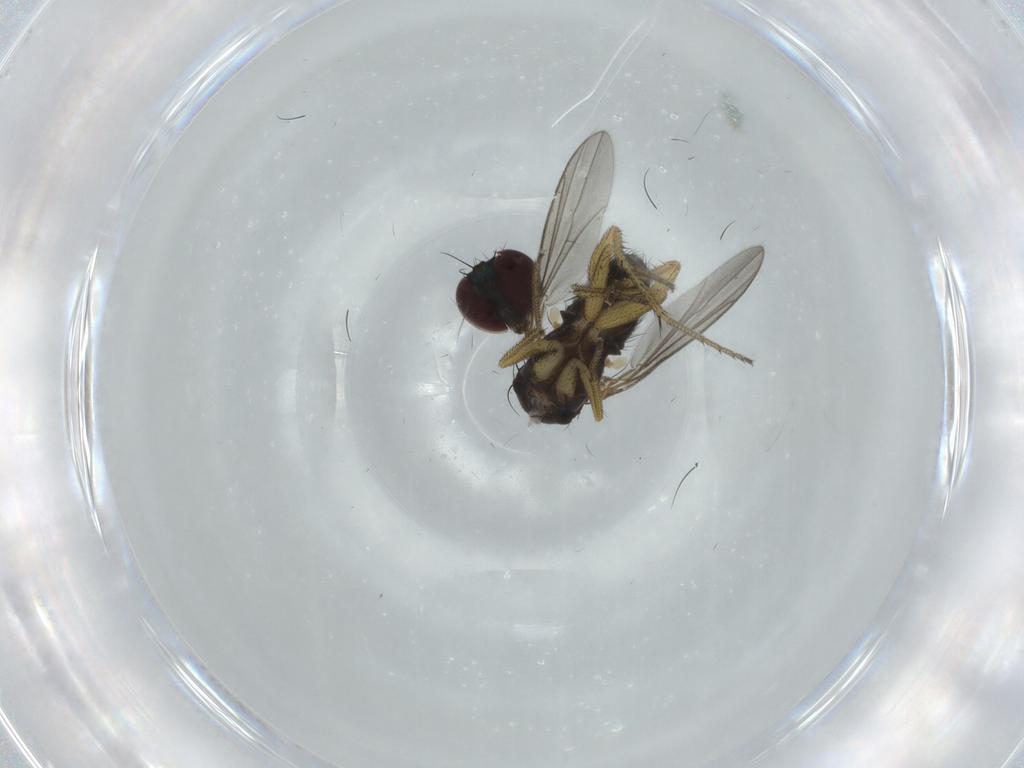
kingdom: Animalia
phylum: Arthropoda
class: Insecta
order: Diptera
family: Dolichopodidae
